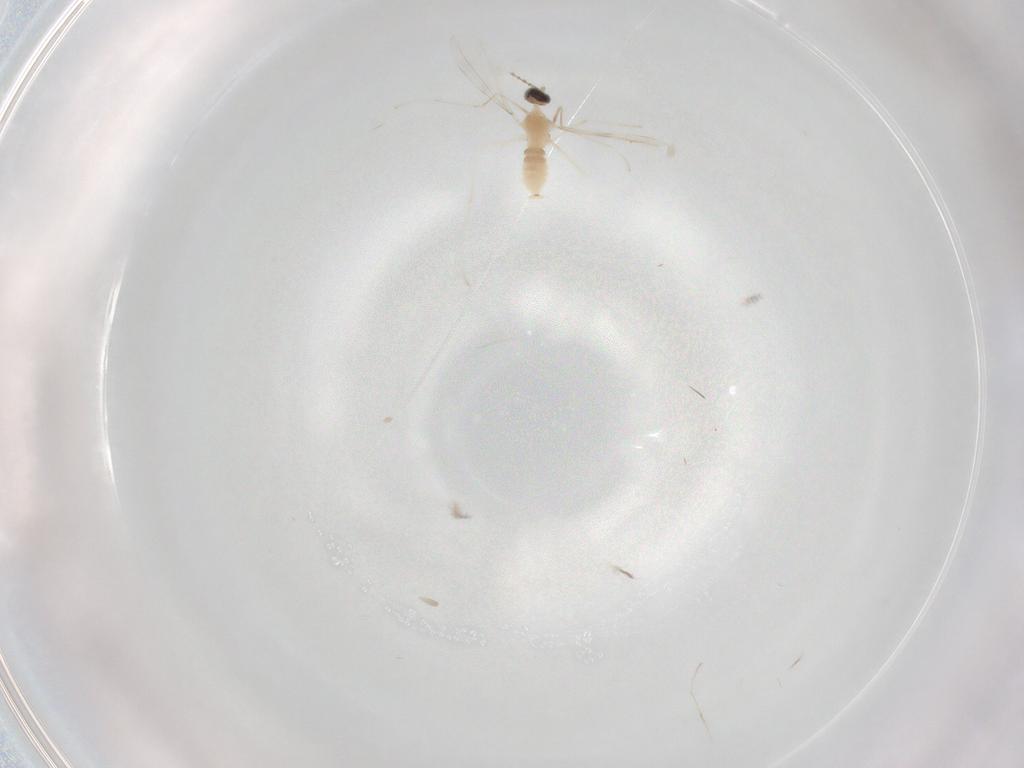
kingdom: Animalia
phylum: Arthropoda
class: Insecta
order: Diptera
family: Cecidomyiidae
